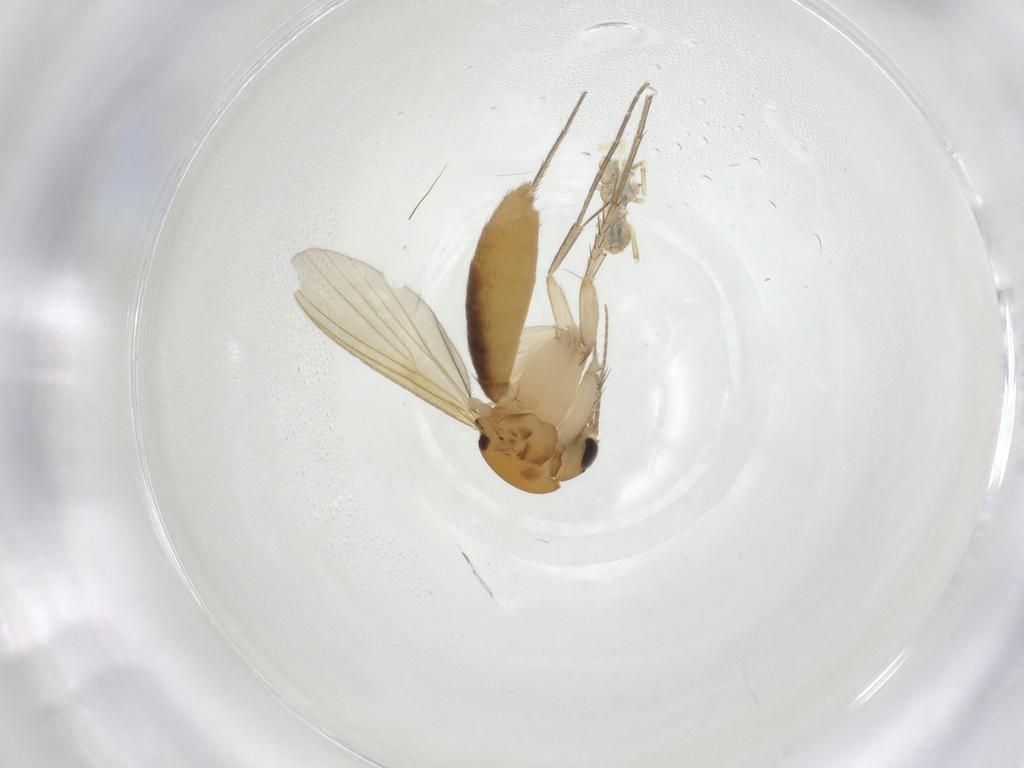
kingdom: Animalia
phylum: Arthropoda
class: Insecta
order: Diptera
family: Mycetophilidae
